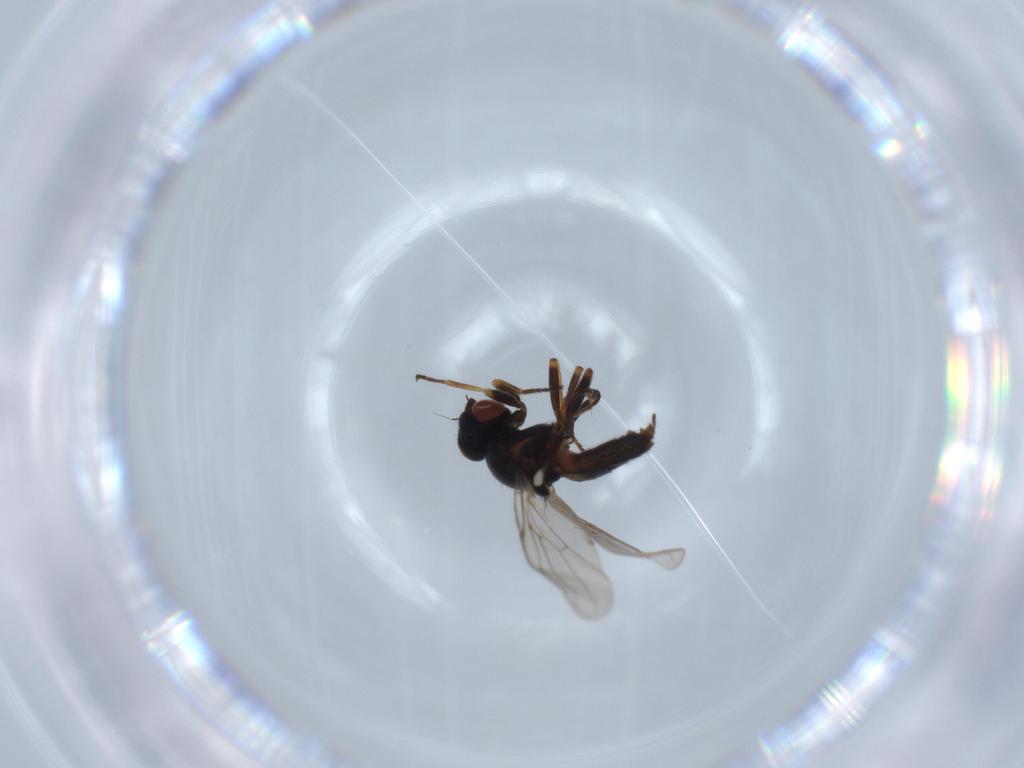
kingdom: Animalia
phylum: Arthropoda
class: Insecta
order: Diptera
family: Chloropidae
